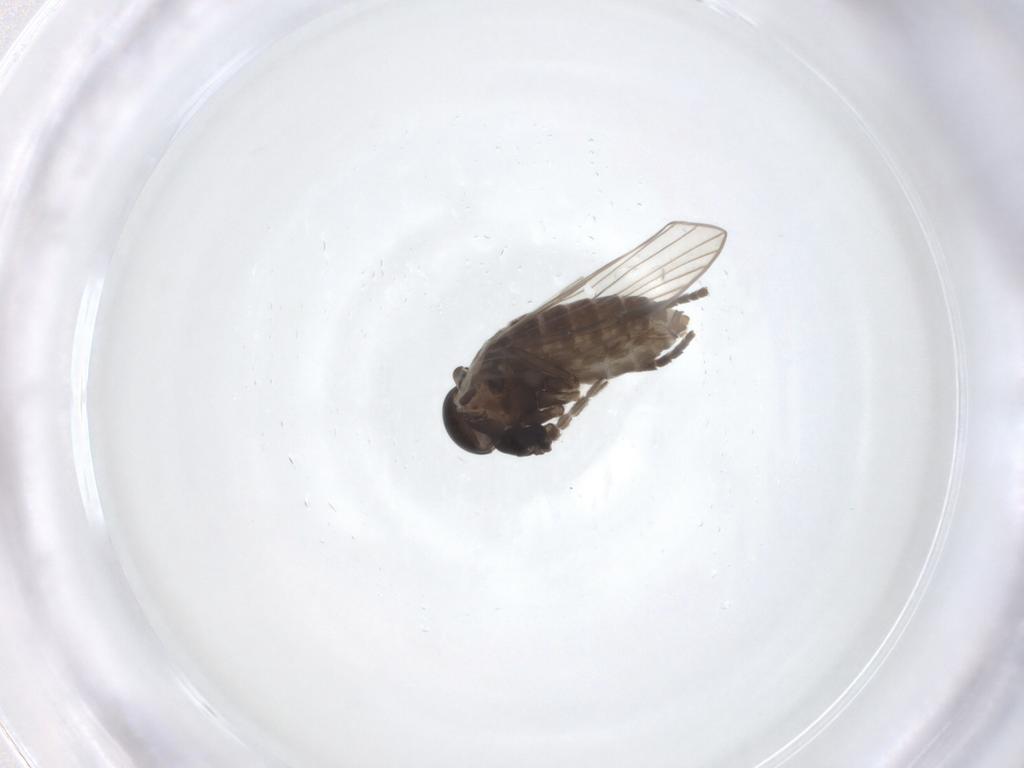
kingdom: Animalia
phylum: Arthropoda
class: Insecta
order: Diptera
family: Psychodidae
